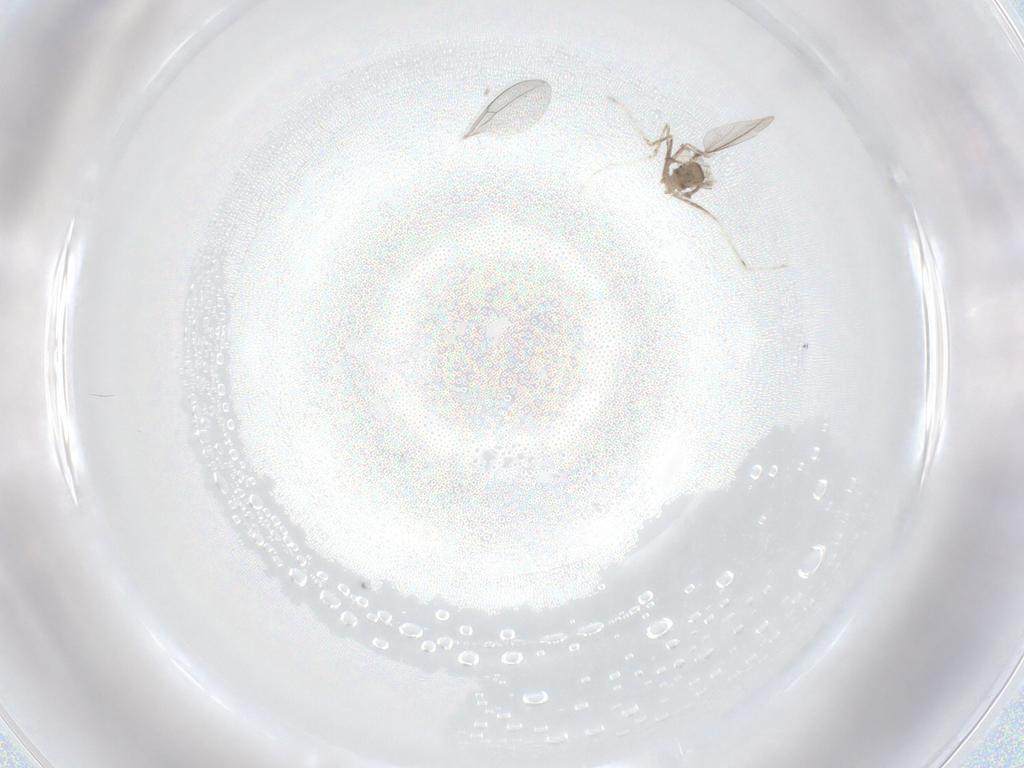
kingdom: Animalia
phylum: Arthropoda
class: Insecta
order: Diptera
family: Cecidomyiidae
